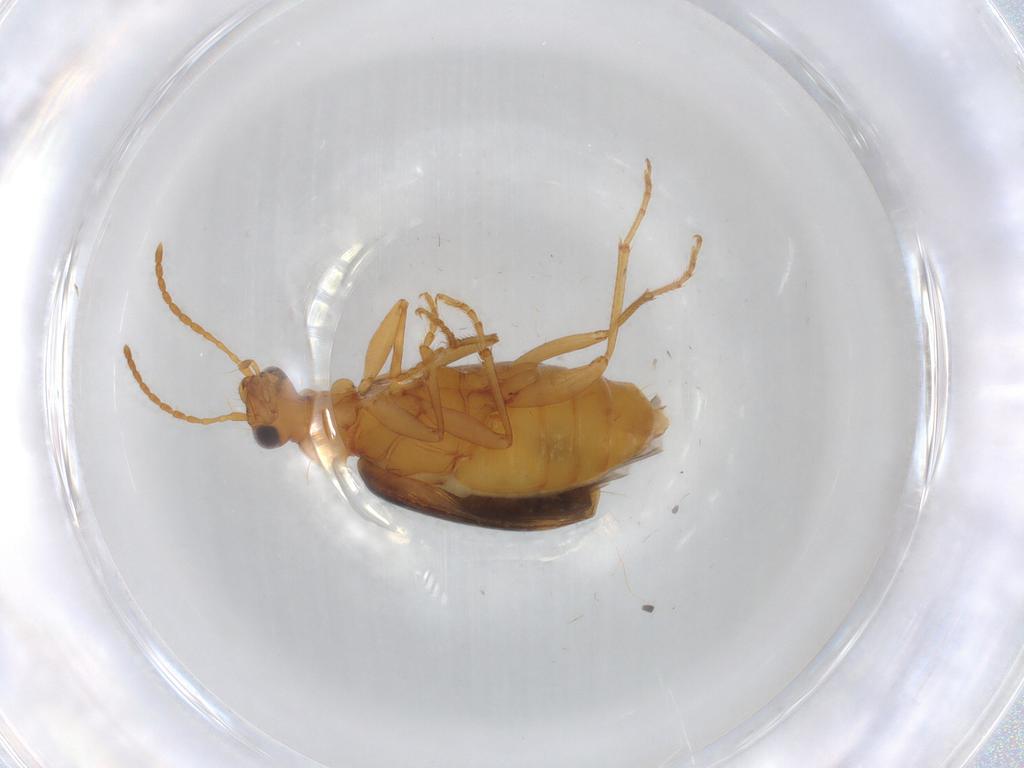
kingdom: Animalia
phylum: Arthropoda
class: Insecta
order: Coleoptera
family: Carabidae
